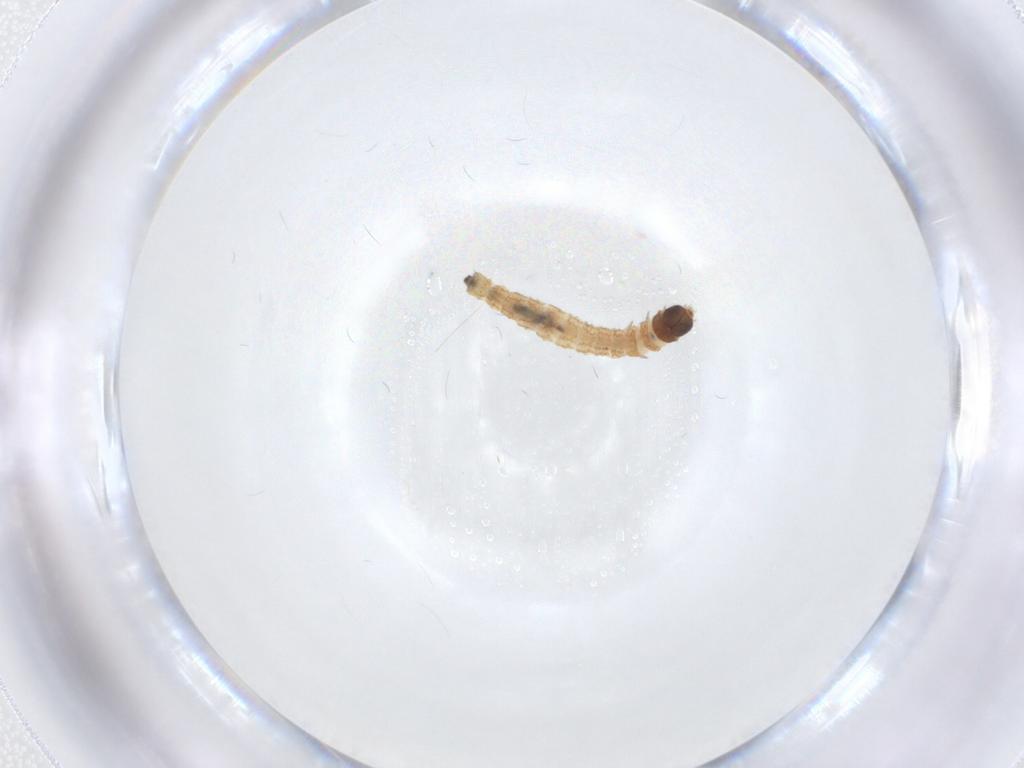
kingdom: Animalia
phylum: Arthropoda
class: Insecta
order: Lepidoptera
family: Gelechiidae
